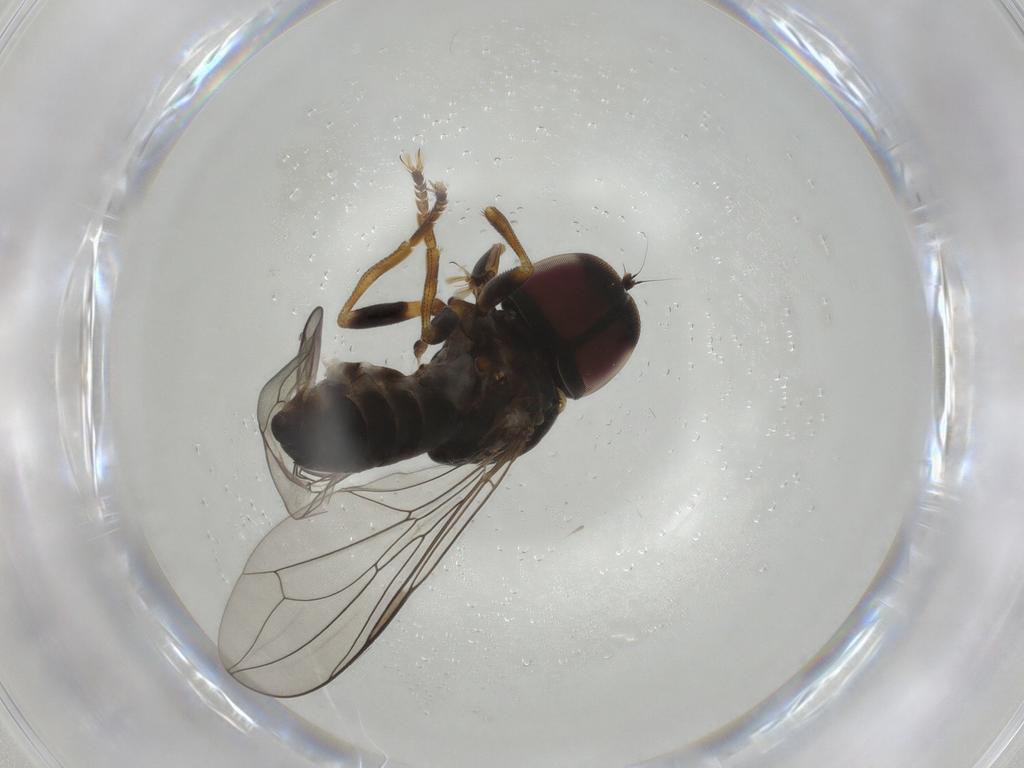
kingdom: Animalia
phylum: Arthropoda
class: Insecta
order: Diptera
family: Pipunculidae
